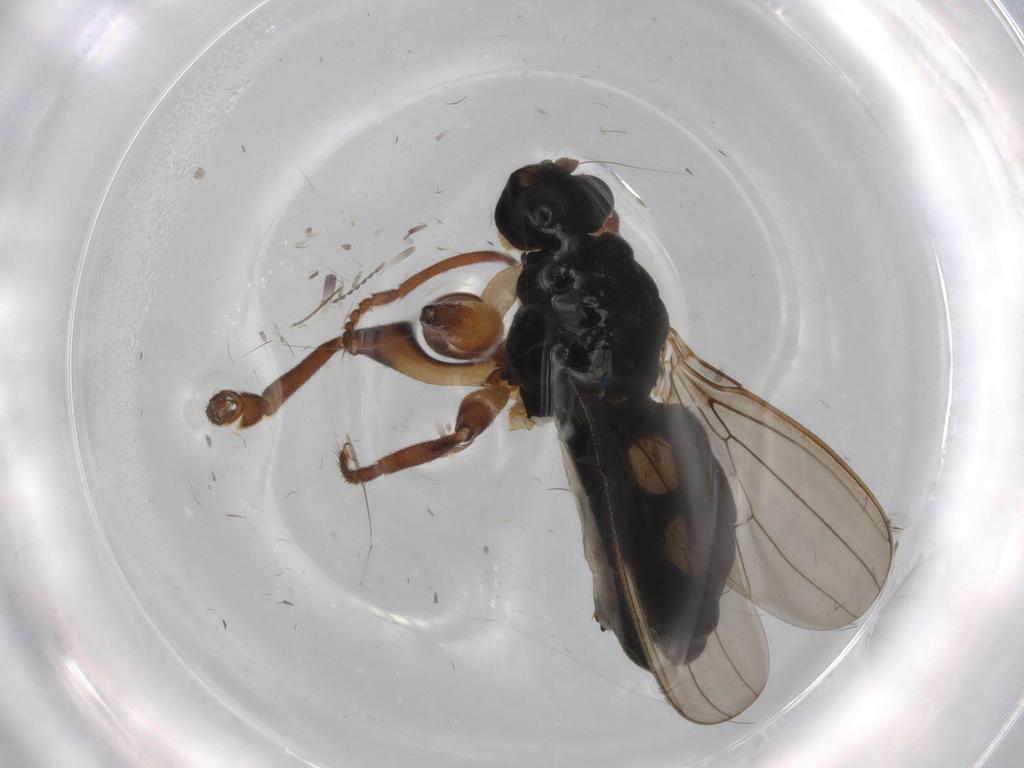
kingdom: Animalia
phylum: Arthropoda
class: Insecta
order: Diptera
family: Sphaeroceridae
